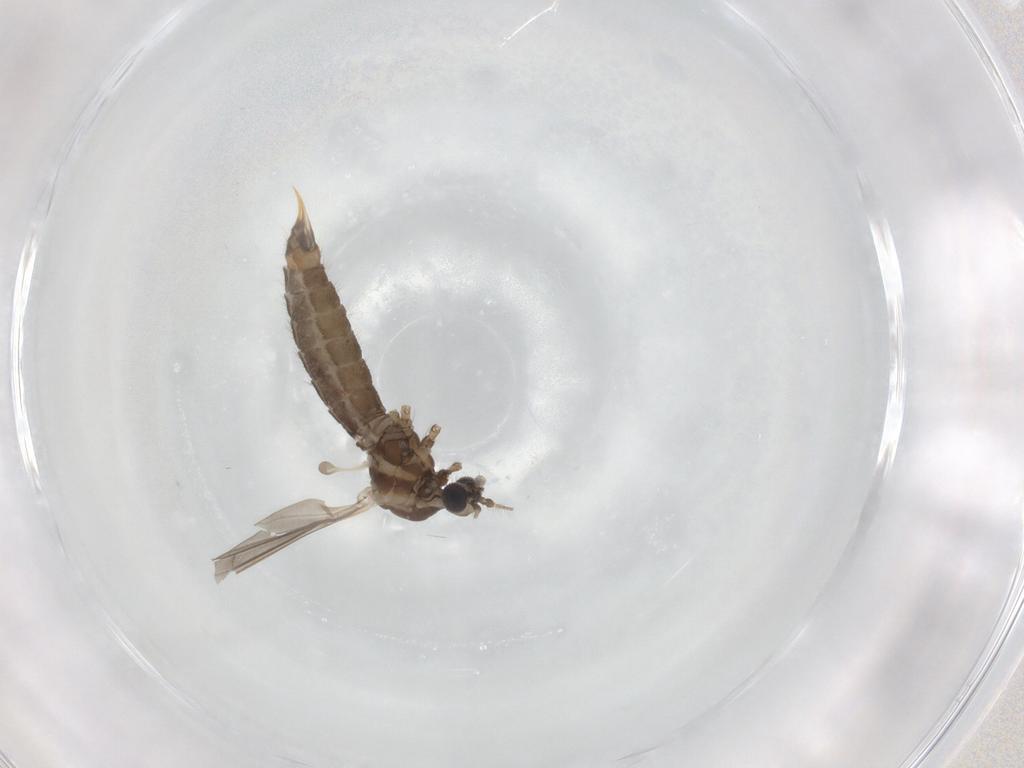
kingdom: Animalia
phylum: Arthropoda
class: Insecta
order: Diptera
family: Limoniidae
